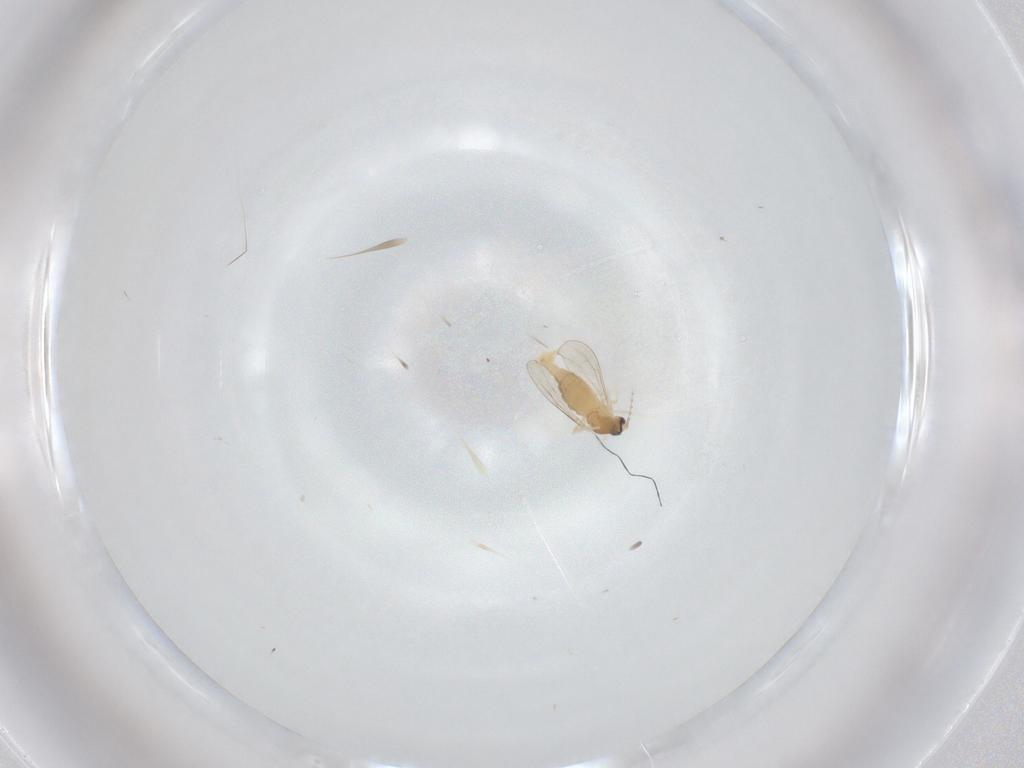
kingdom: Animalia
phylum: Arthropoda
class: Insecta
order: Diptera
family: Cecidomyiidae
